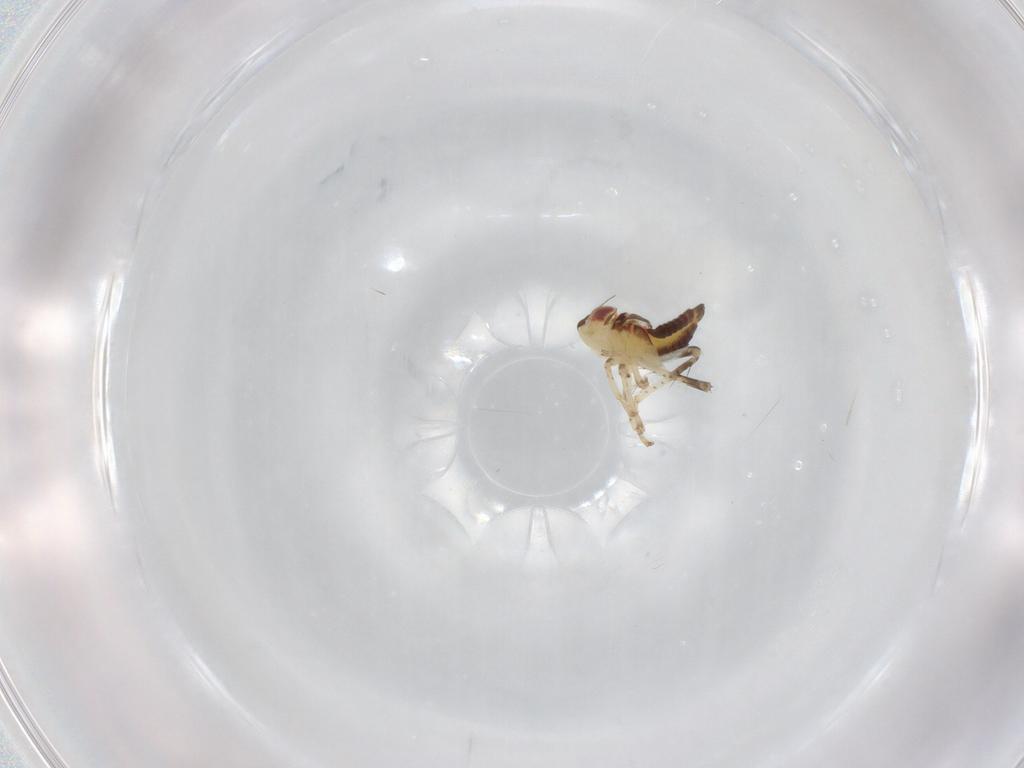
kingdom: Animalia
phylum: Arthropoda
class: Insecta
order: Hemiptera
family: Cicadellidae
